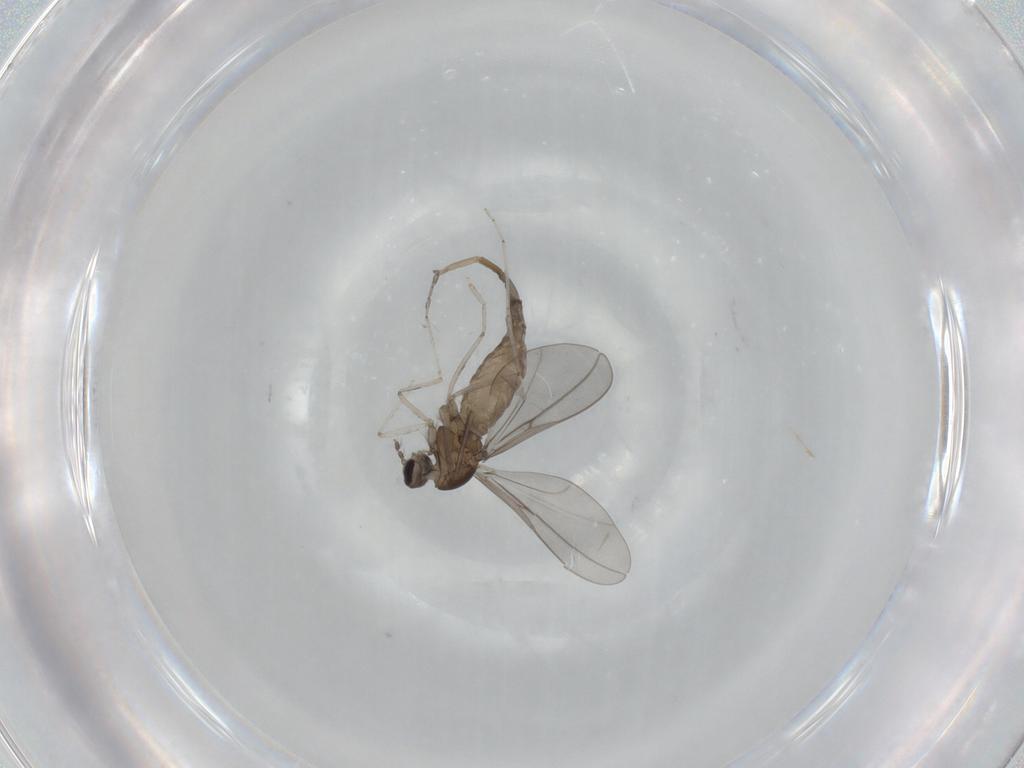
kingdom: Animalia
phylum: Arthropoda
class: Insecta
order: Diptera
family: Cecidomyiidae
